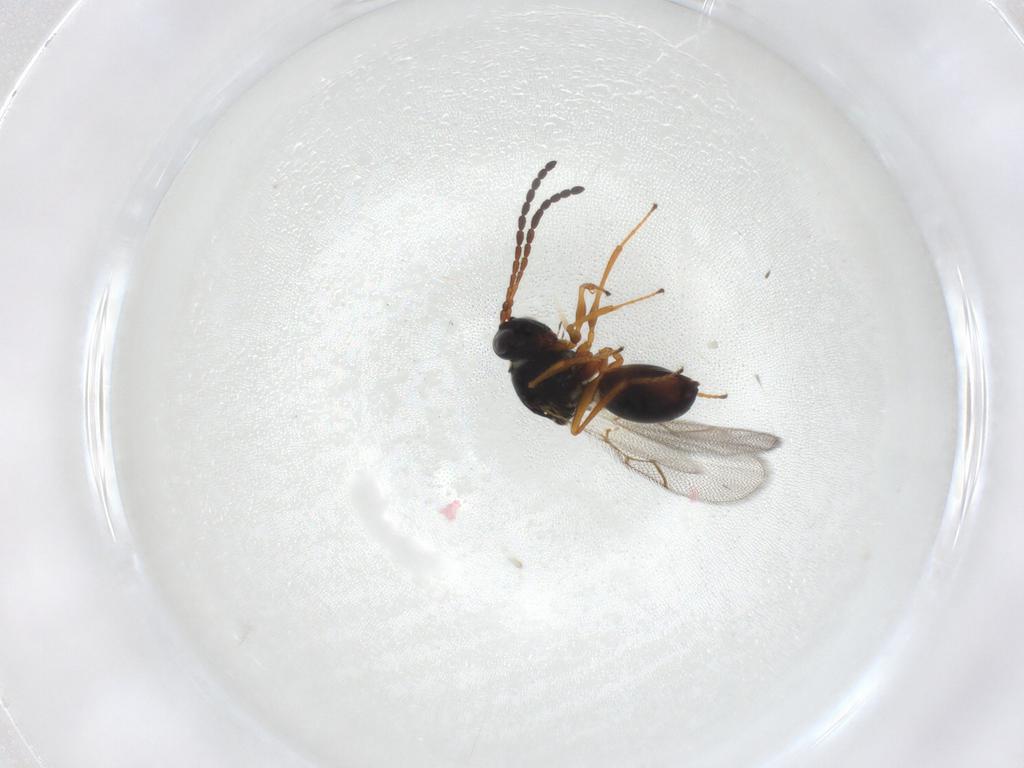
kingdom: Animalia
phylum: Arthropoda
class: Insecta
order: Hymenoptera
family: Figitidae
